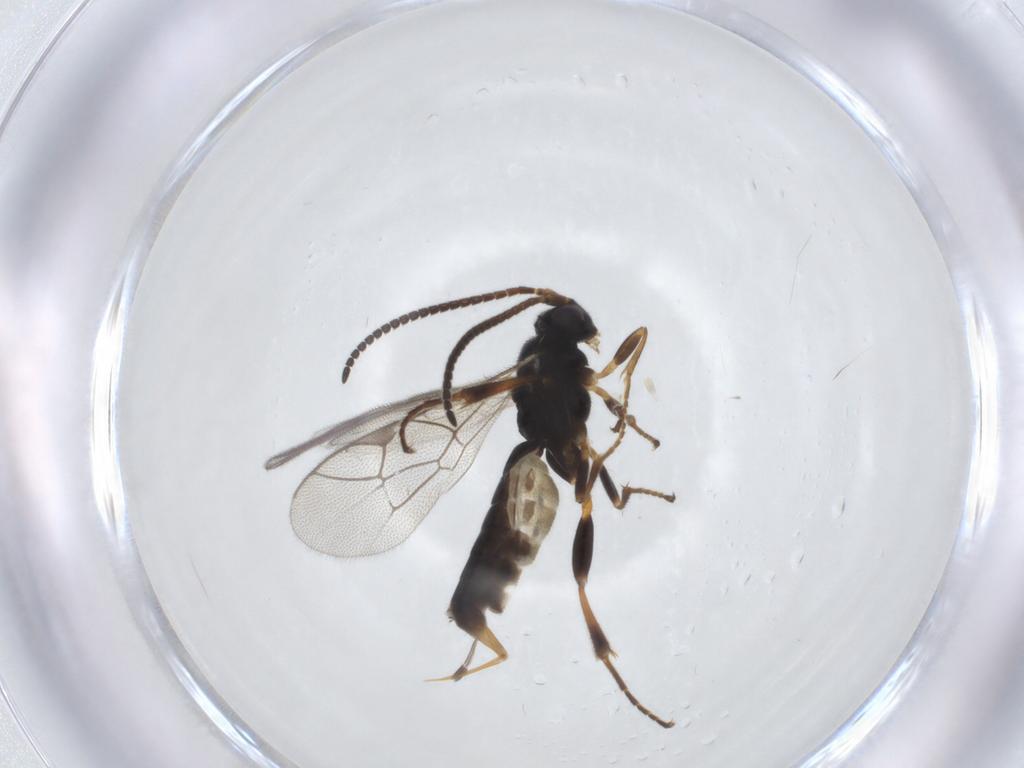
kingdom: Animalia
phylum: Arthropoda
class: Insecta
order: Hymenoptera
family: Ichneumonidae
